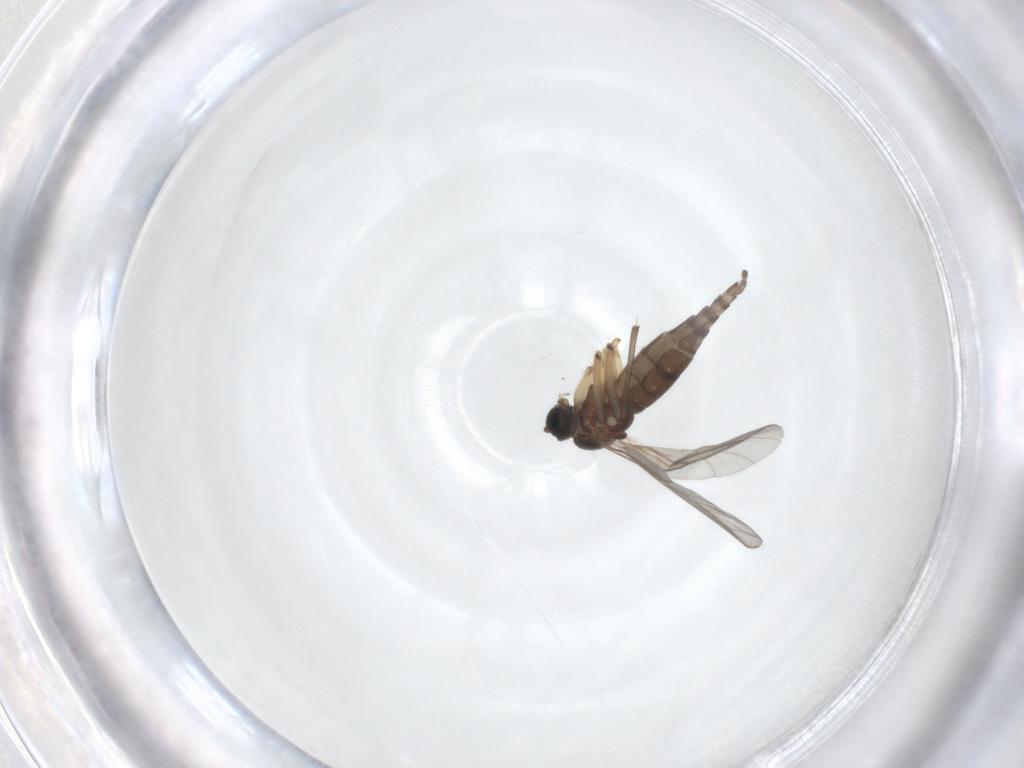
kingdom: Animalia
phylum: Arthropoda
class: Insecta
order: Diptera
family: Sciaridae
